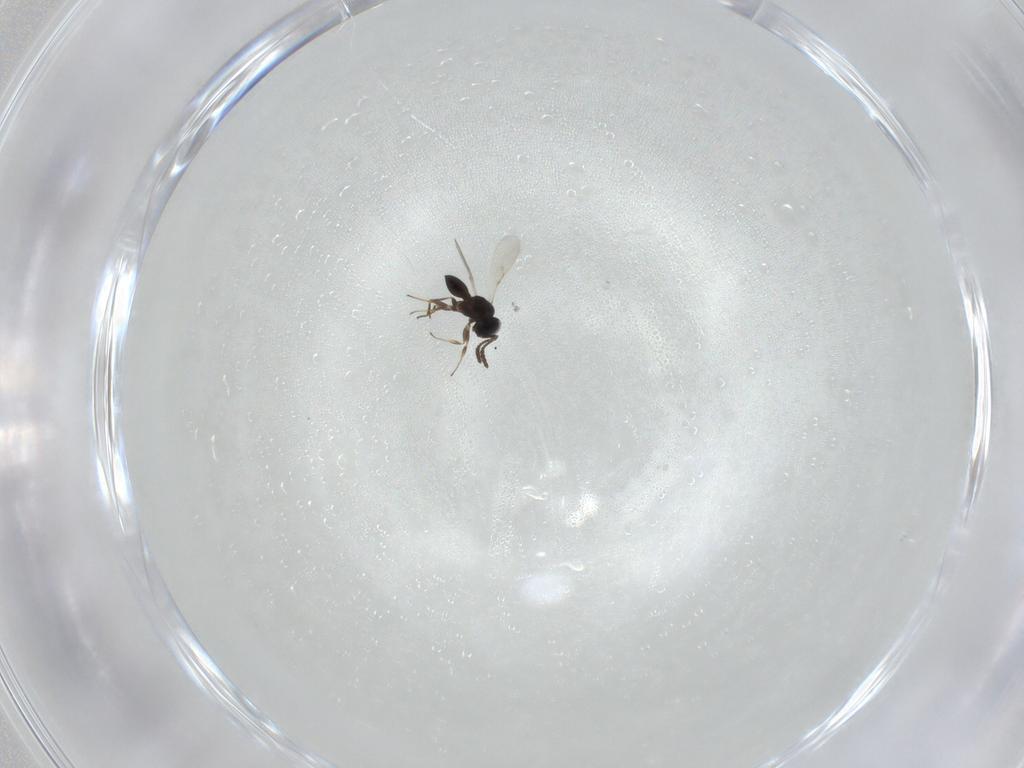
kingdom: Animalia
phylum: Arthropoda
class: Insecta
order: Hymenoptera
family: Scelionidae
